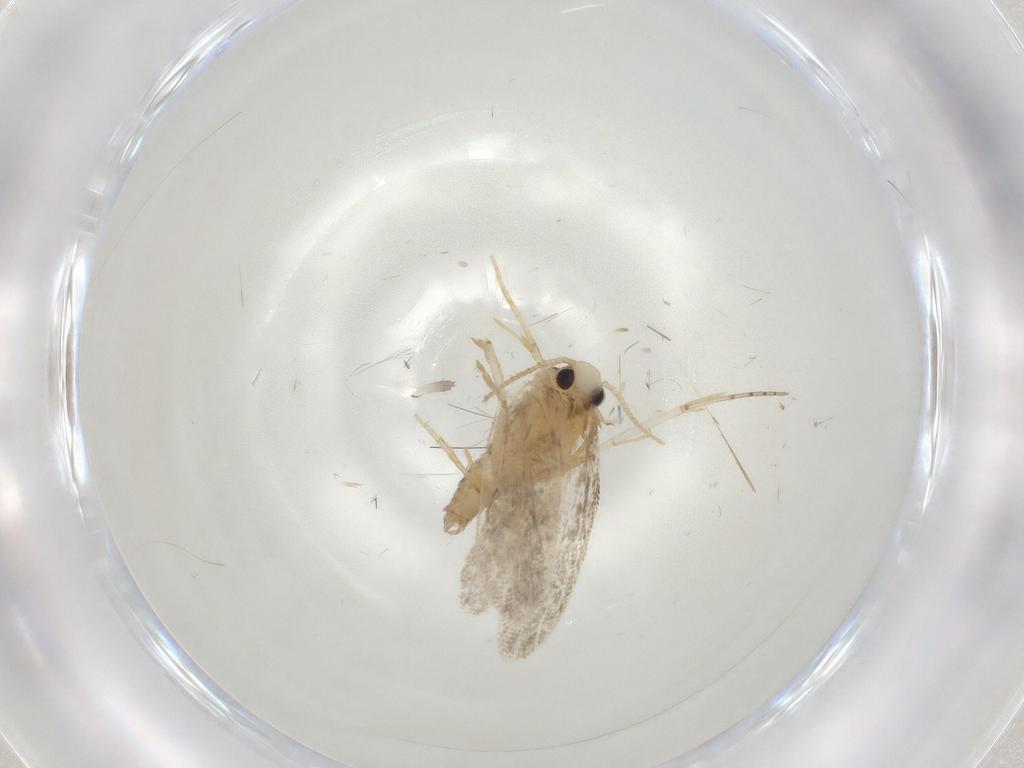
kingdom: Animalia
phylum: Arthropoda
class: Insecta
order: Lepidoptera
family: Psychidae
